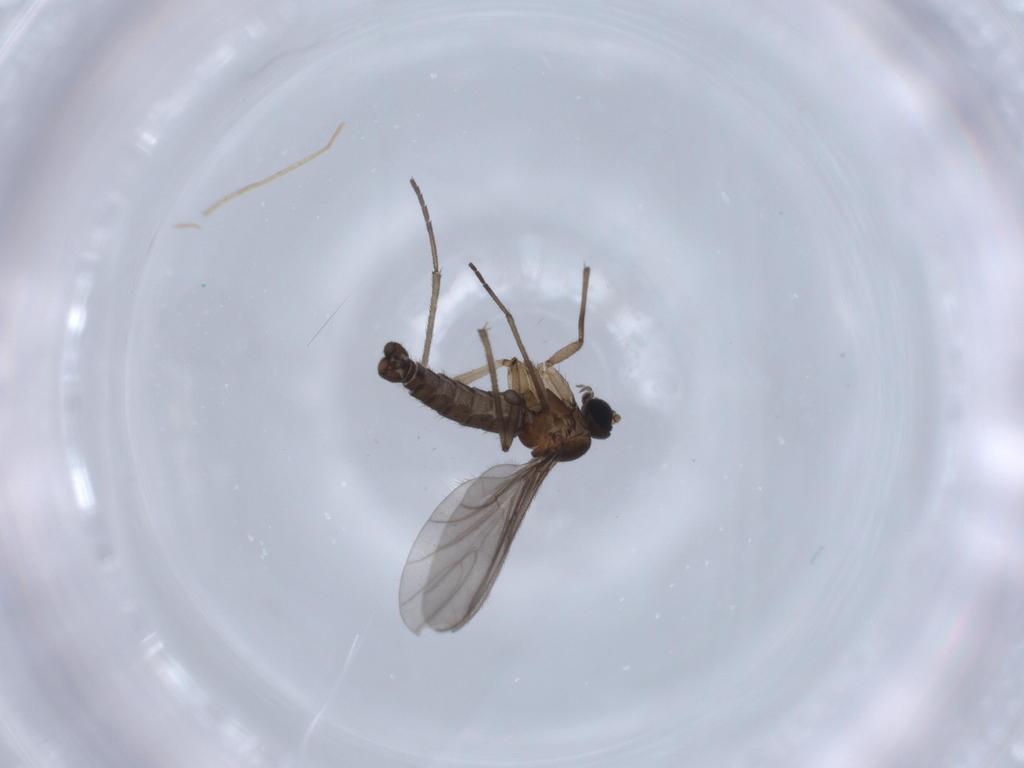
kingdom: Animalia
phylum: Arthropoda
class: Insecta
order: Diptera
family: Sciaridae
